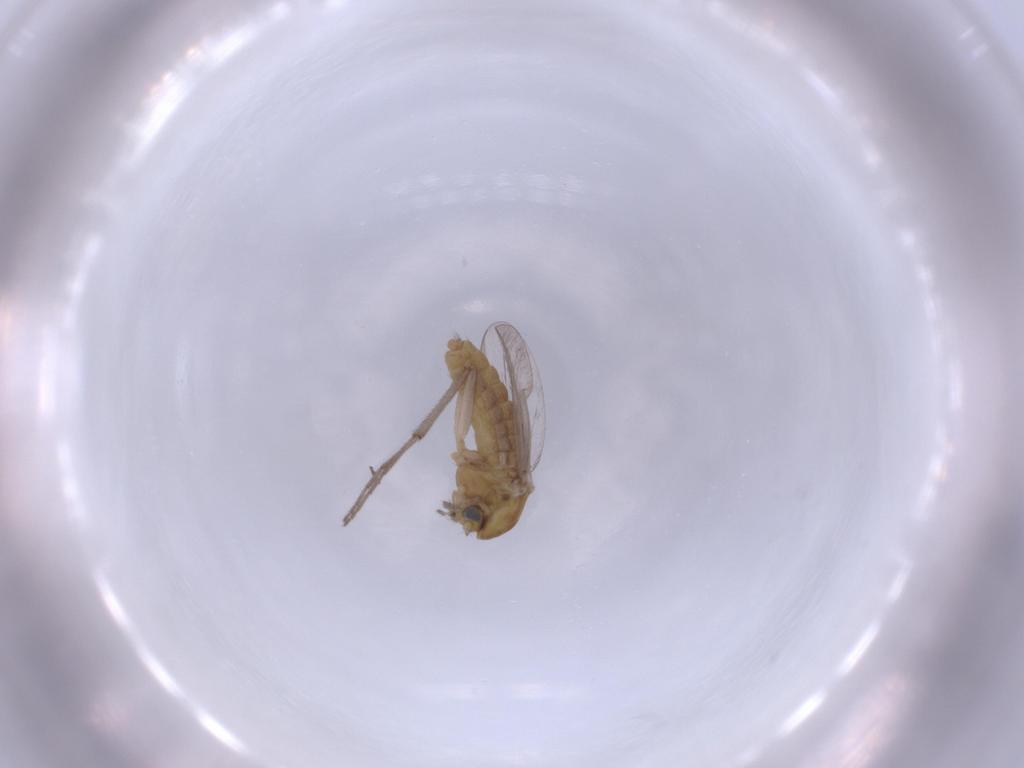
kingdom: Animalia
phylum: Arthropoda
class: Insecta
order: Diptera
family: Chironomidae
